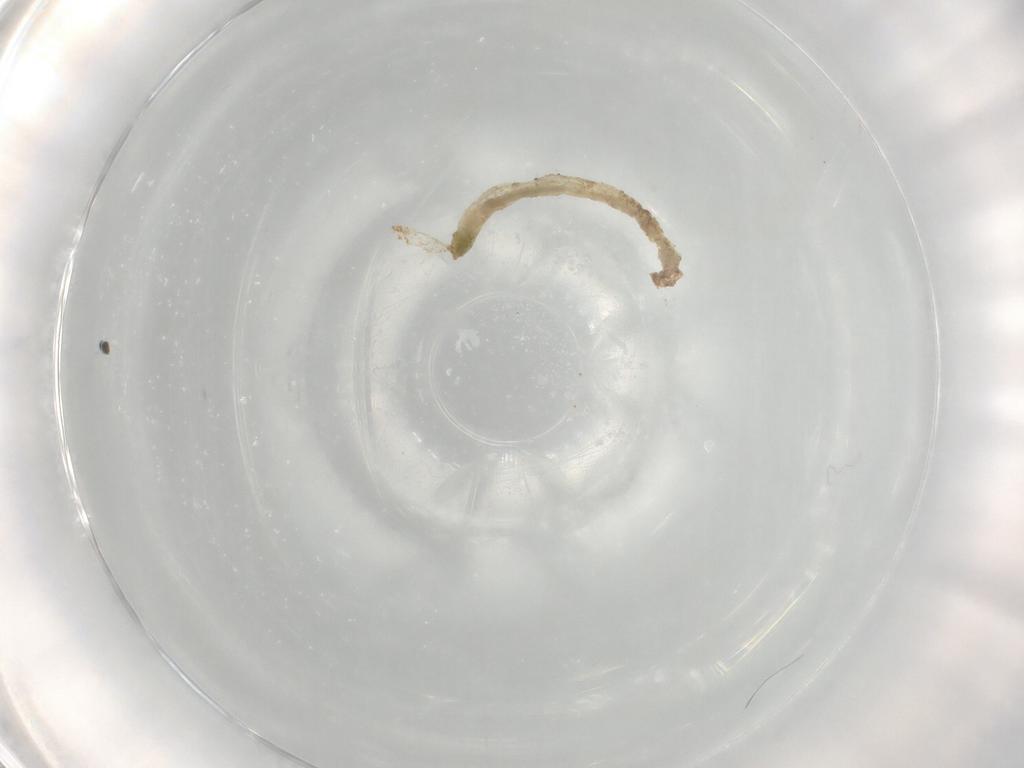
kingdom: Animalia
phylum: Arthropoda
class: Insecta
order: Diptera
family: Chironomidae
